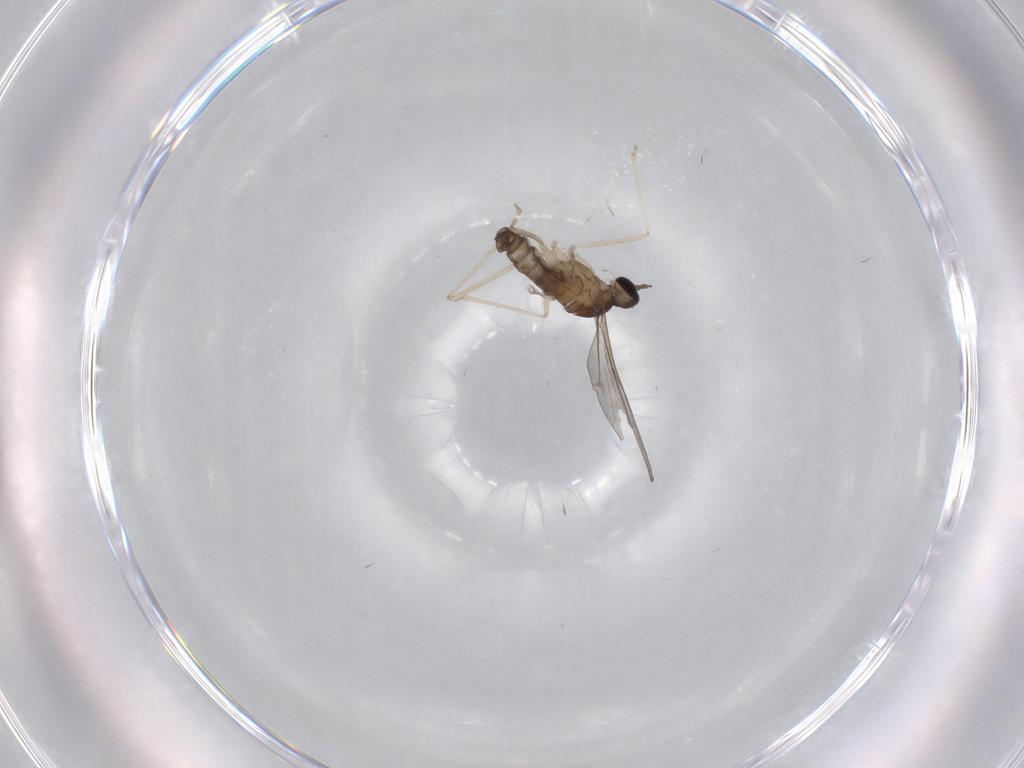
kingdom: Animalia
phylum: Arthropoda
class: Insecta
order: Diptera
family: Cecidomyiidae
